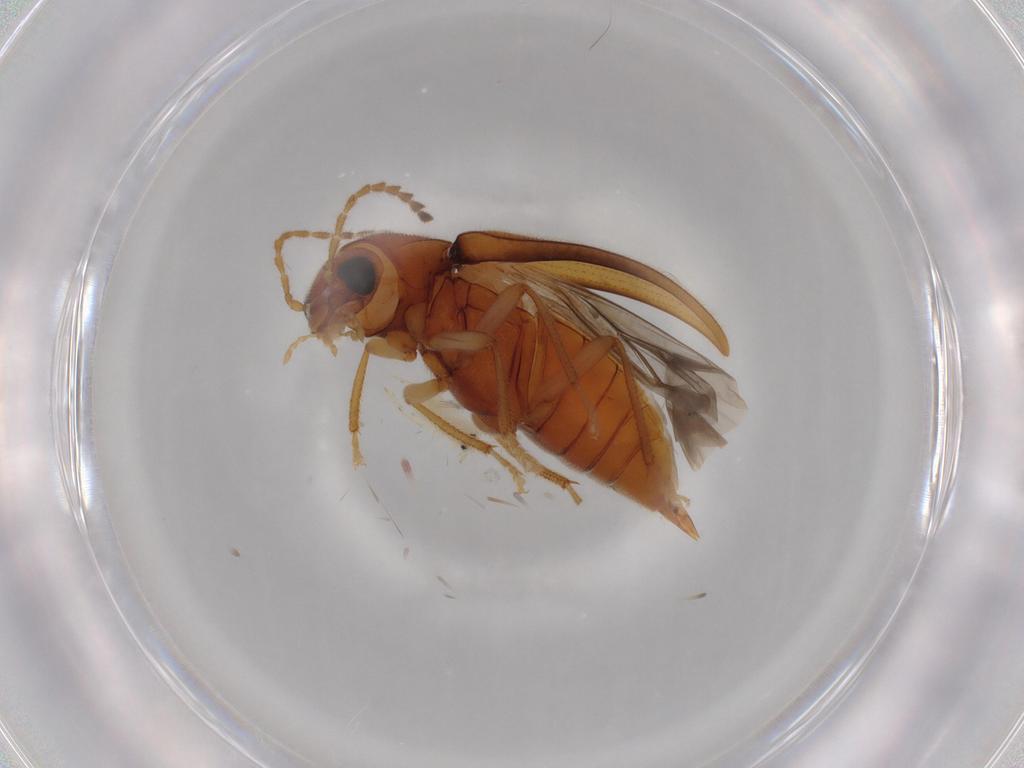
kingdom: Animalia
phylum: Arthropoda
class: Insecta
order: Coleoptera
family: Ptilodactylidae
